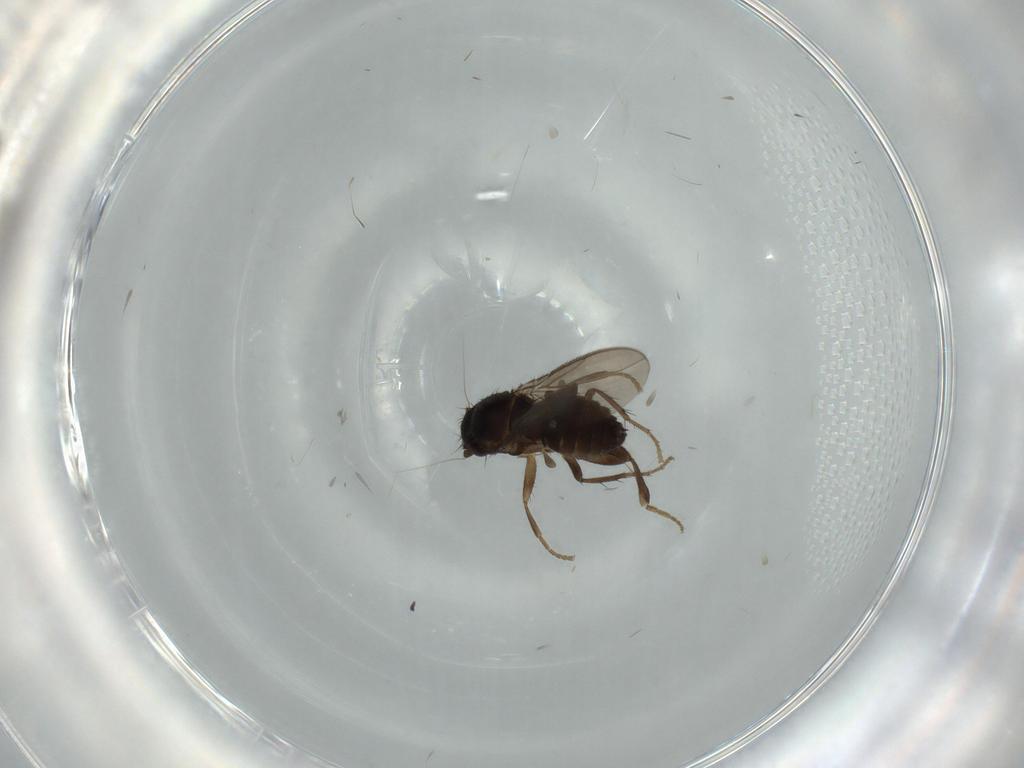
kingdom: Animalia
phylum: Arthropoda
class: Insecta
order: Diptera
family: Sphaeroceridae
